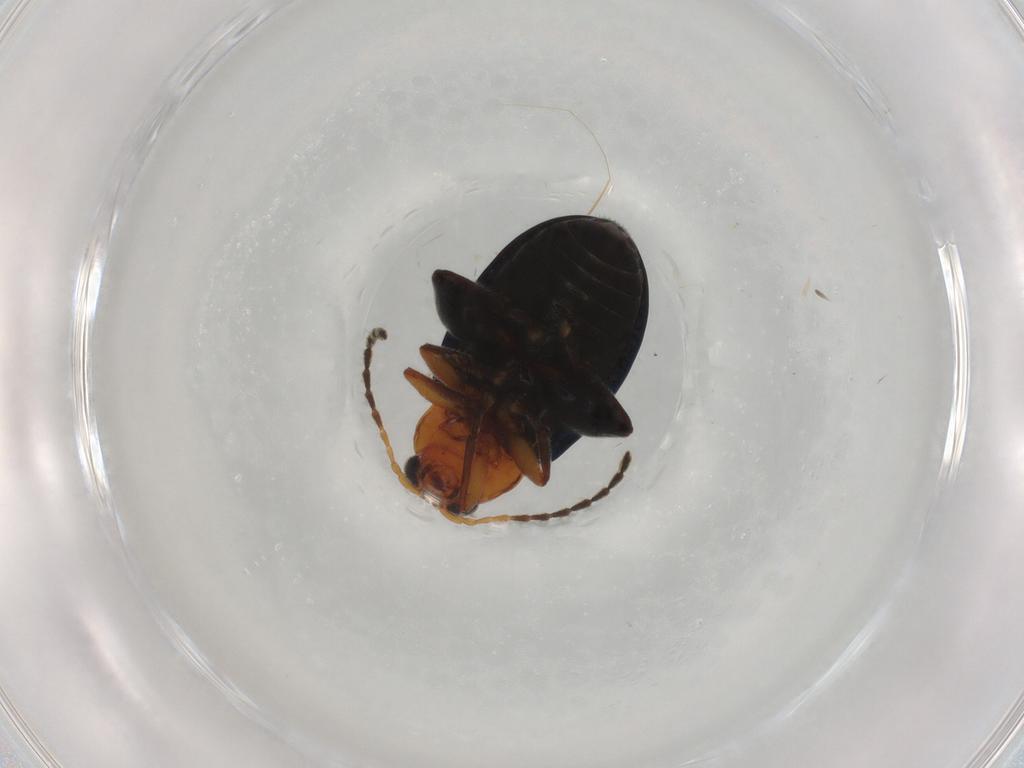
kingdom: Animalia
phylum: Arthropoda
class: Insecta
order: Coleoptera
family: Chrysomelidae
